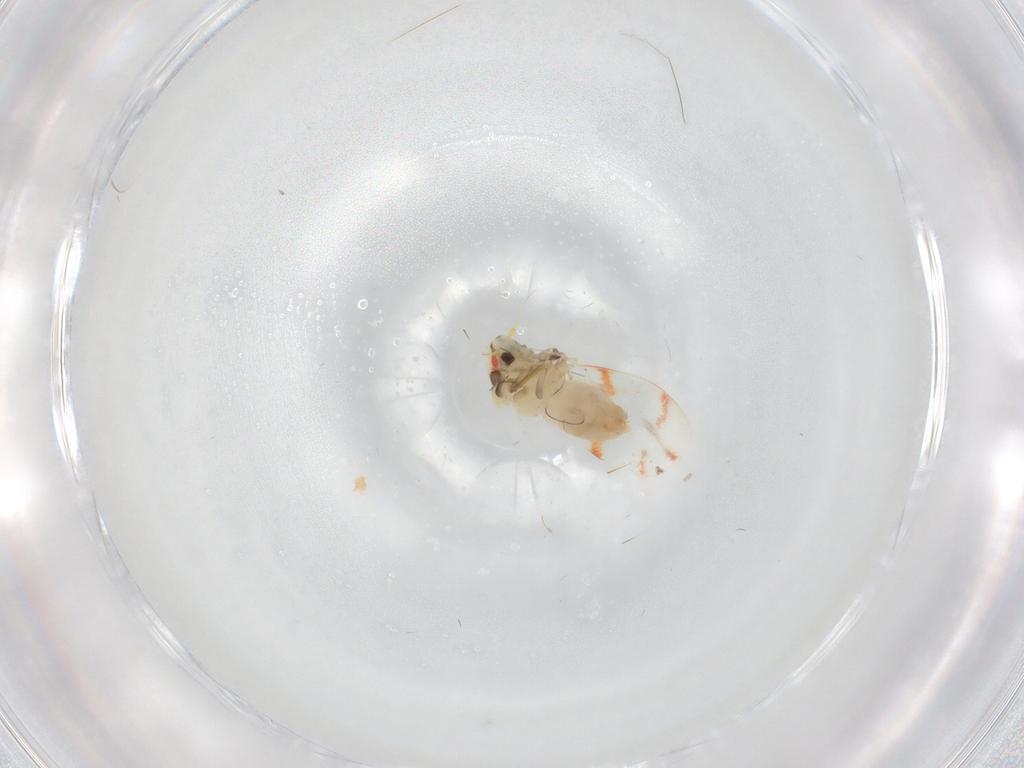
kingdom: Animalia
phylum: Arthropoda
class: Insecta
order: Hemiptera
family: Aleyrodidae
